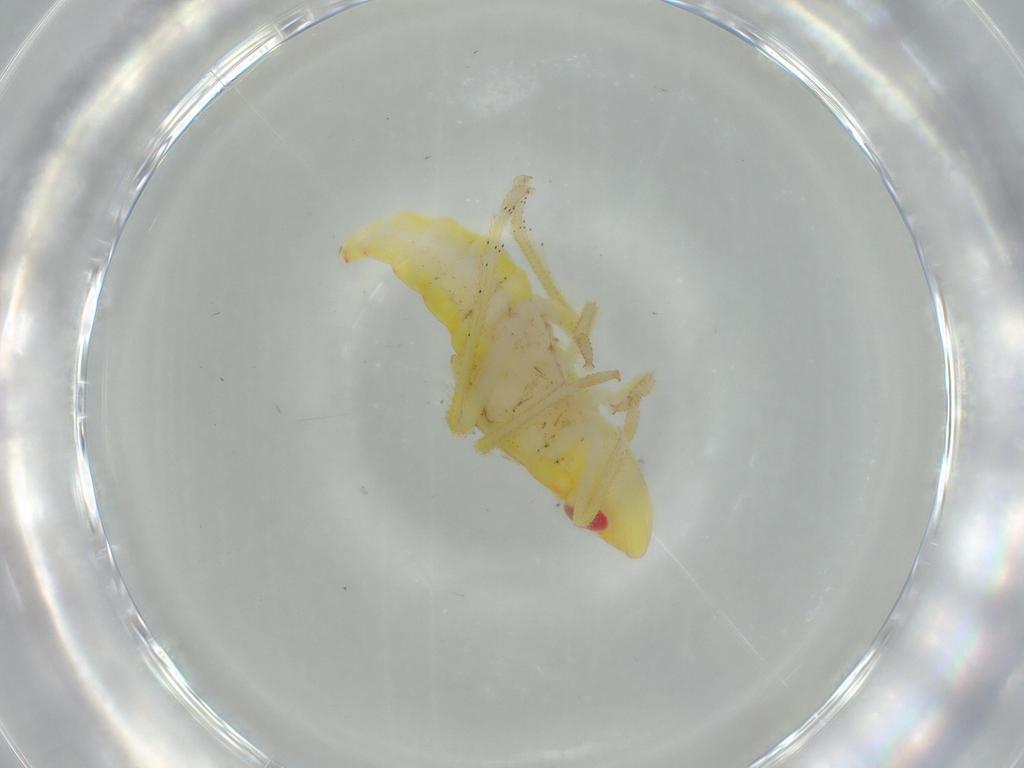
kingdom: Animalia
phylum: Arthropoda
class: Insecta
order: Hemiptera
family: Tropiduchidae
